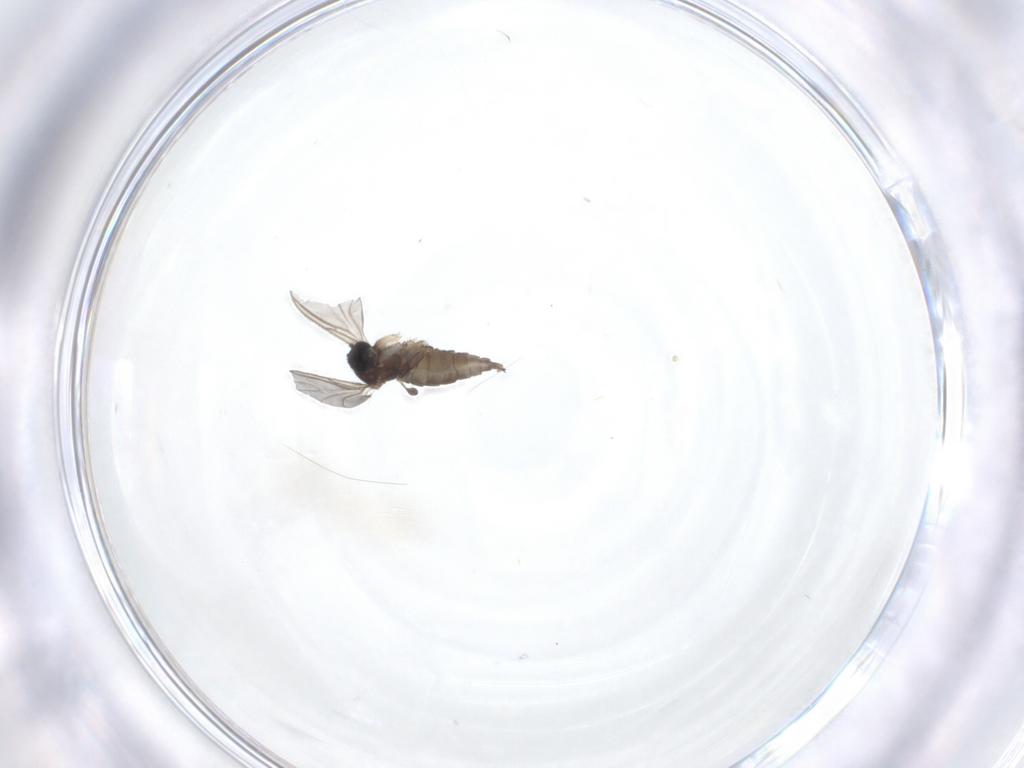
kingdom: Animalia
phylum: Arthropoda
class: Insecta
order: Diptera
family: Sciaridae
